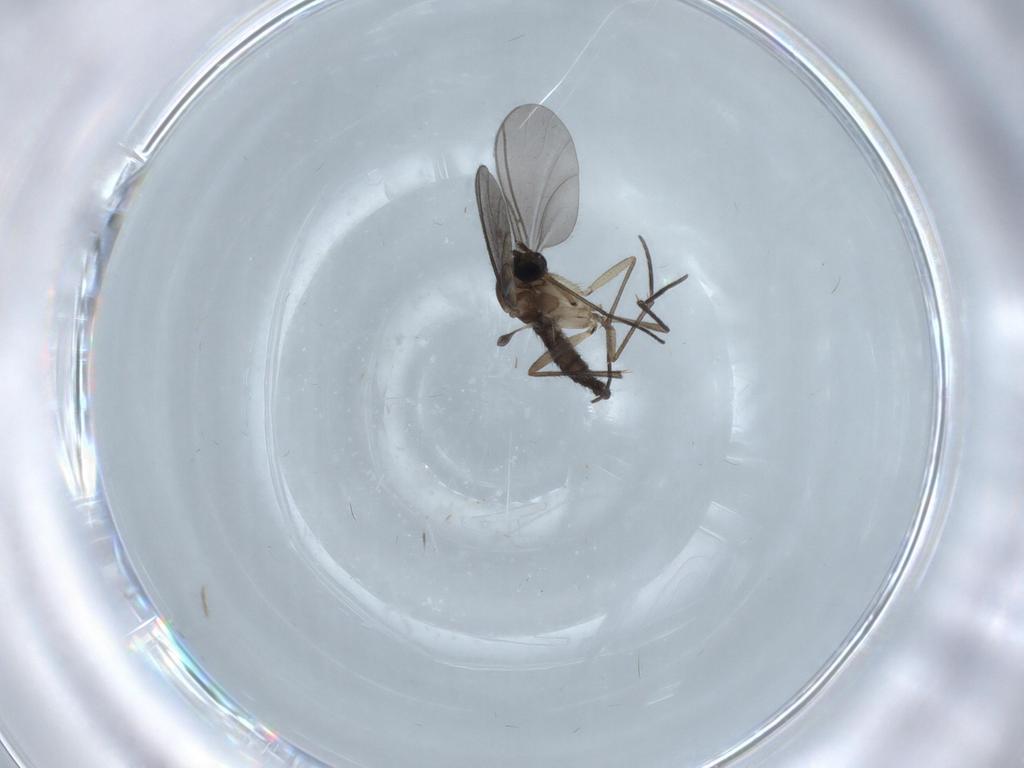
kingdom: Animalia
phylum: Arthropoda
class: Insecta
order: Diptera
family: Sciaridae
